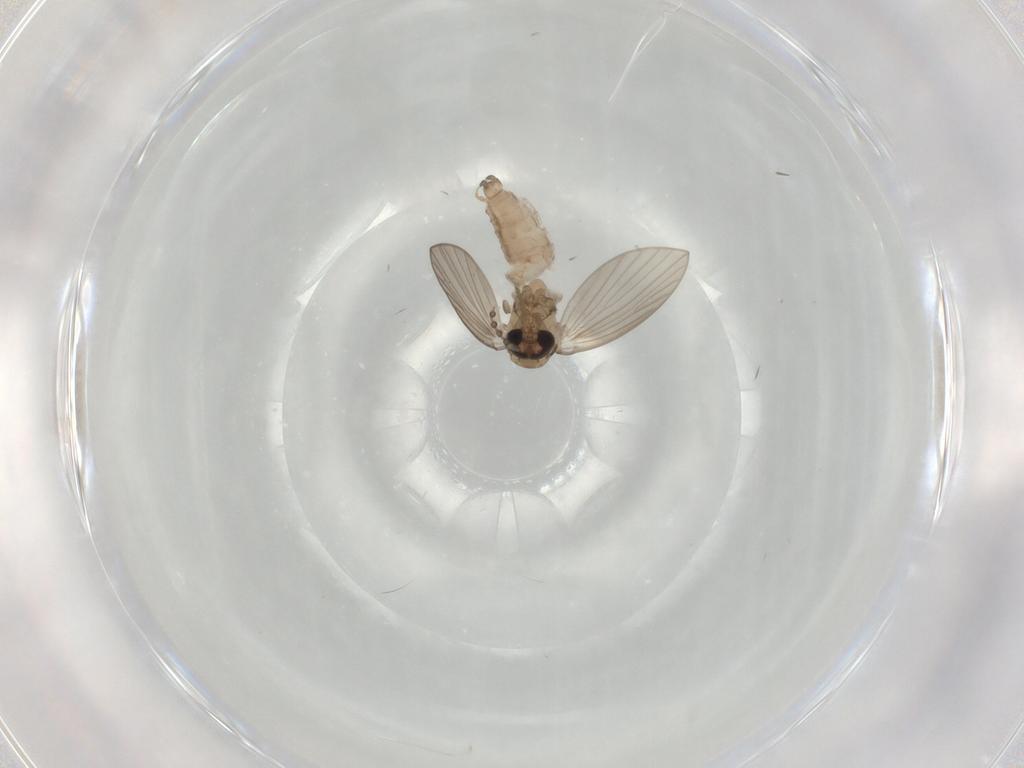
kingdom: Animalia
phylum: Arthropoda
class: Insecta
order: Diptera
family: Psychodidae
